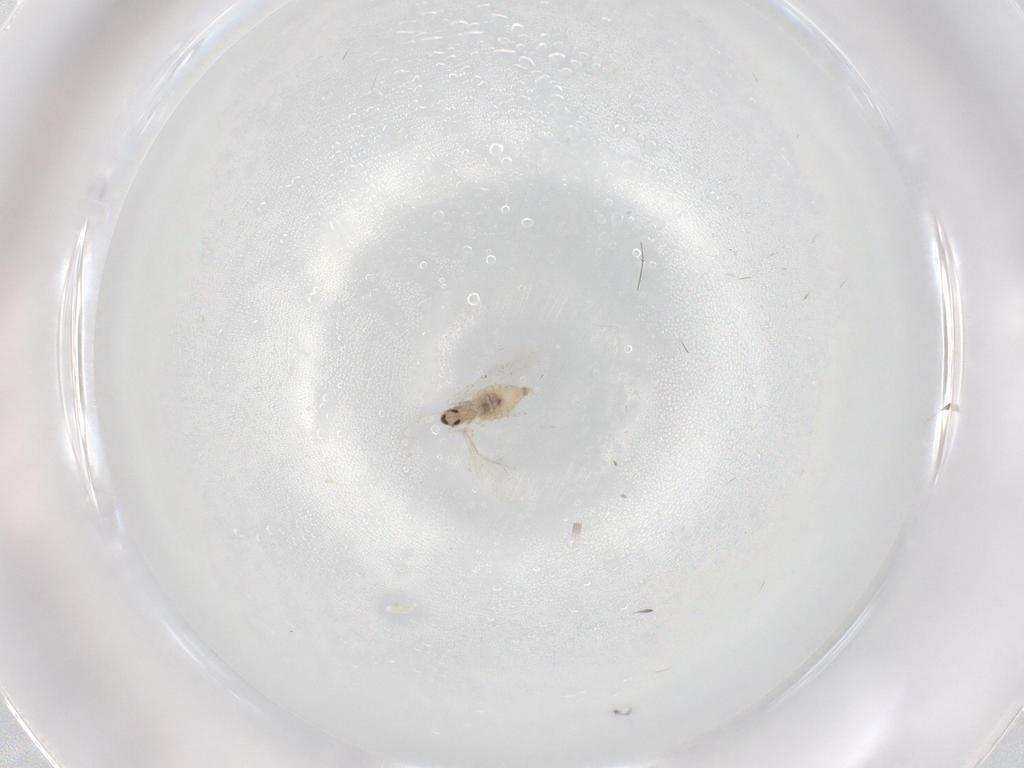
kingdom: Animalia
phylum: Arthropoda
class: Insecta
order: Diptera
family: Cecidomyiidae
